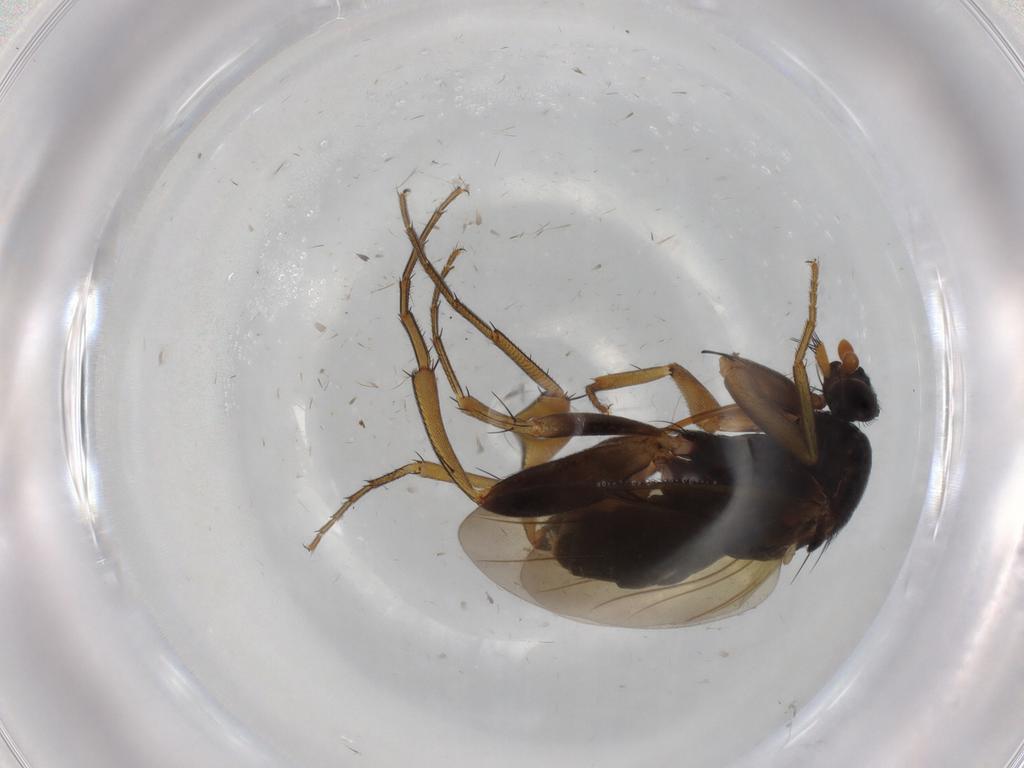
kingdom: Animalia
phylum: Arthropoda
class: Insecta
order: Diptera
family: Phoridae
